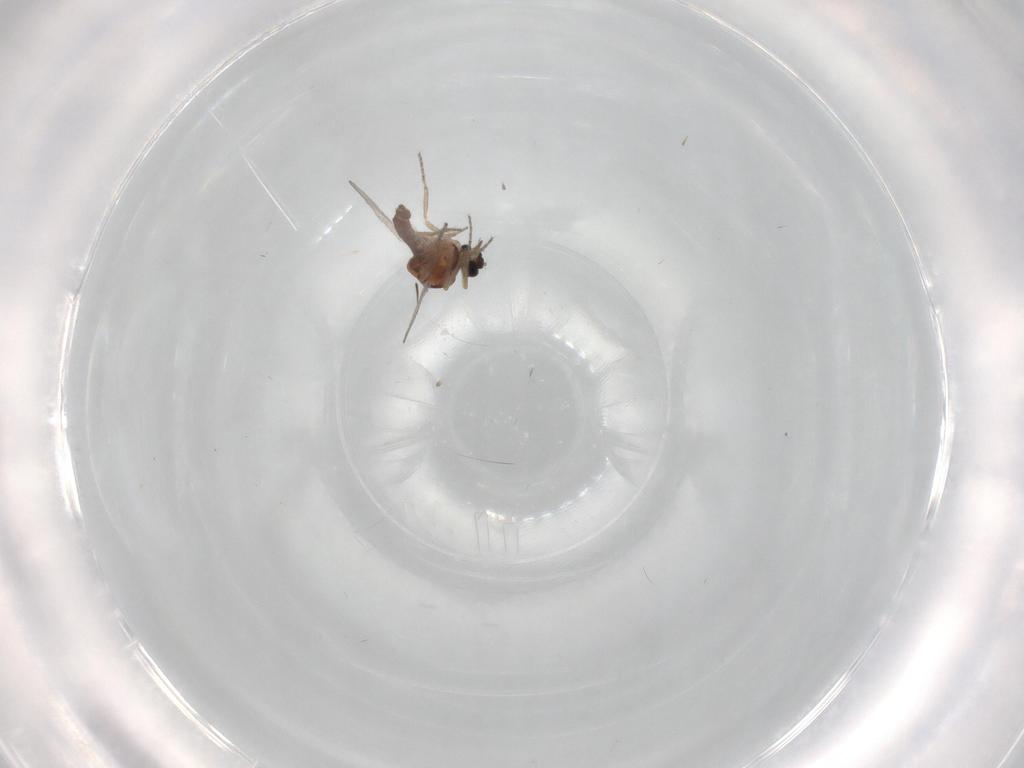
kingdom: Animalia
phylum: Arthropoda
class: Insecta
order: Diptera
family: Ceratopogonidae
